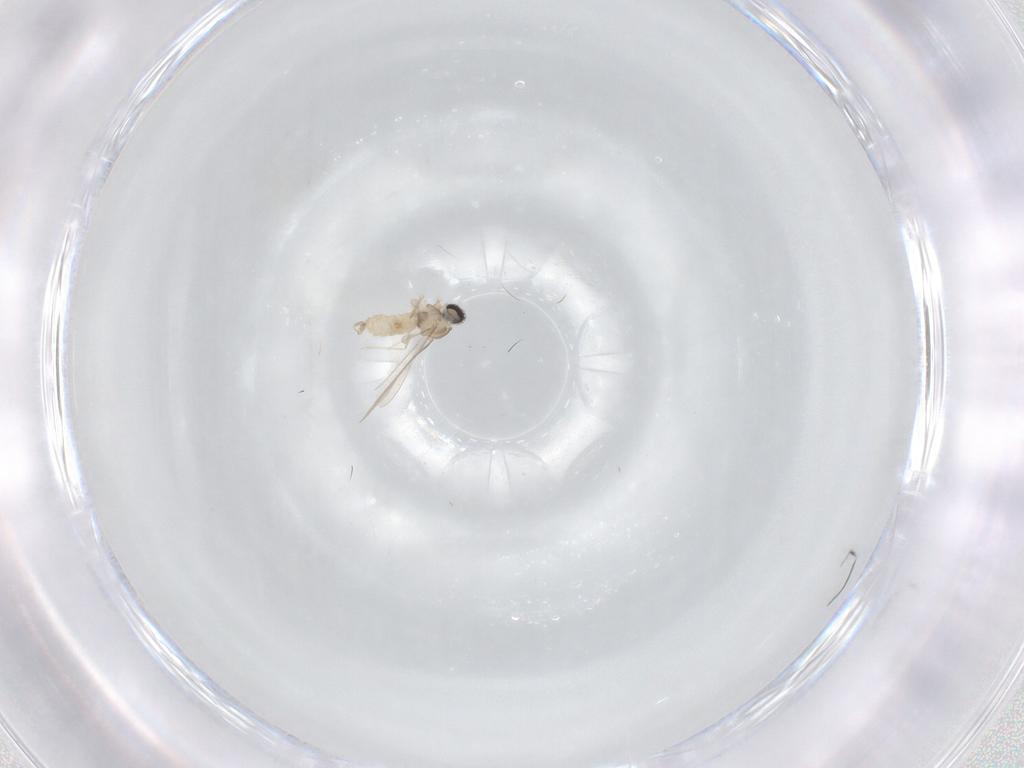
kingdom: Animalia
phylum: Arthropoda
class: Insecta
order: Diptera
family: Cecidomyiidae
